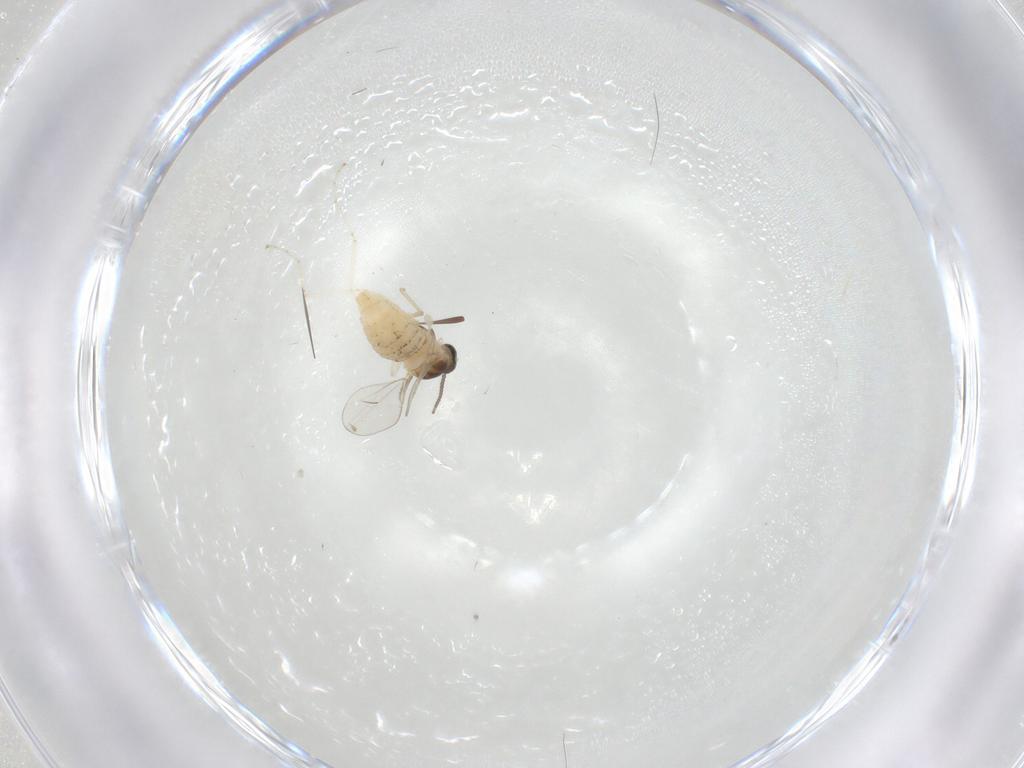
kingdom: Animalia
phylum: Arthropoda
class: Insecta
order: Diptera
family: Cecidomyiidae
